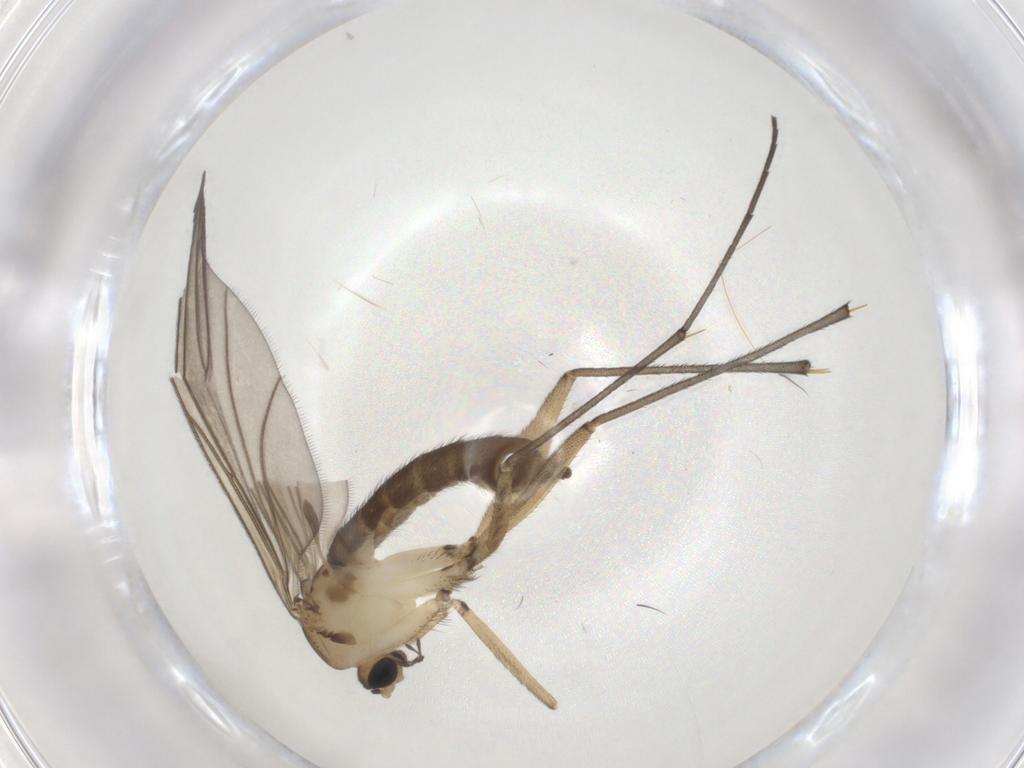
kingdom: Animalia
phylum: Arthropoda
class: Insecta
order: Diptera
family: Sciaridae
